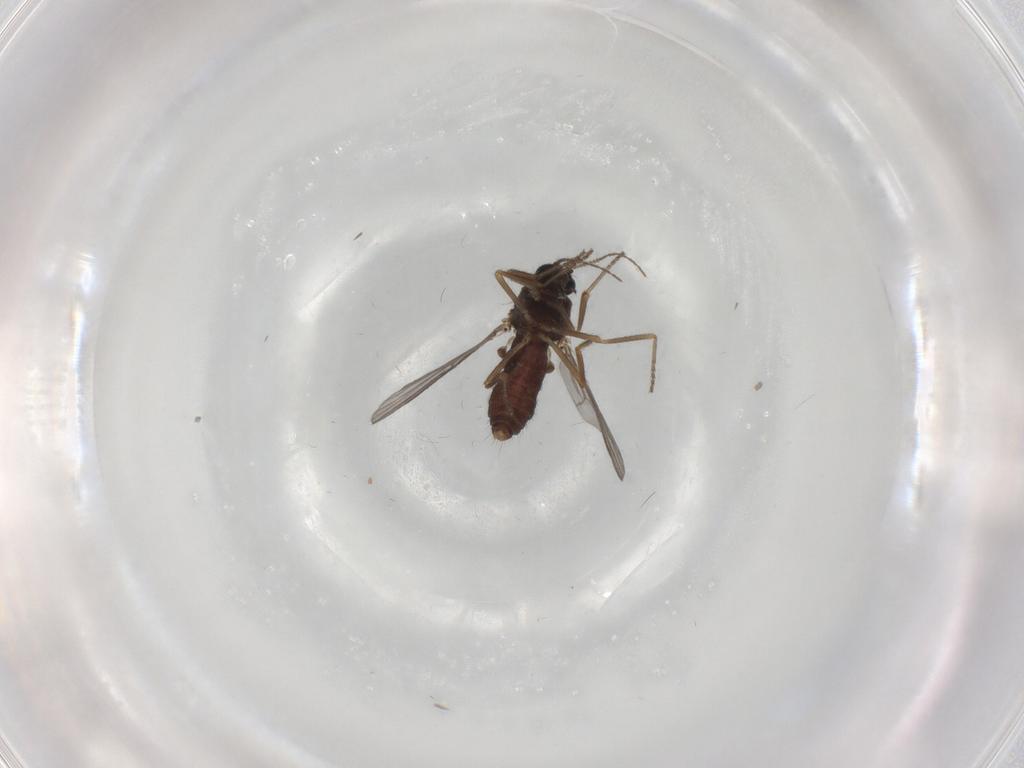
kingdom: Animalia
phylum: Arthropoda
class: Insecta
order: Diptera
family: Ceratopogonidae
